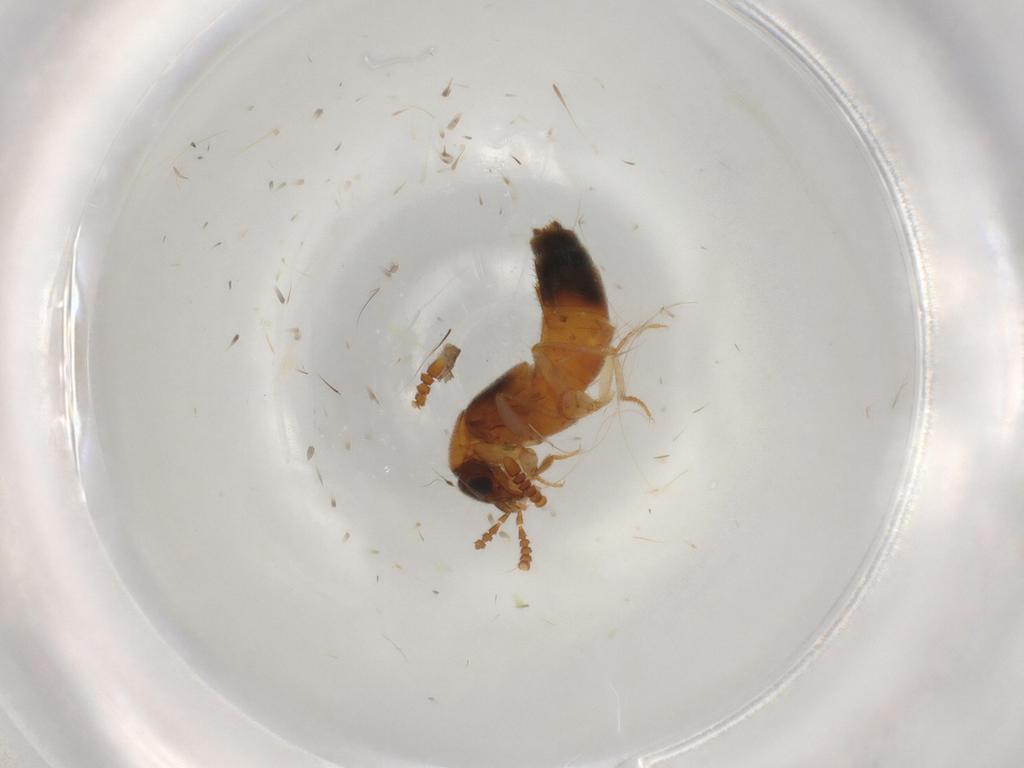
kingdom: Animalia
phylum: Arthropoda
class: Insecta
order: Coleoptera
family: Staphylinidae
